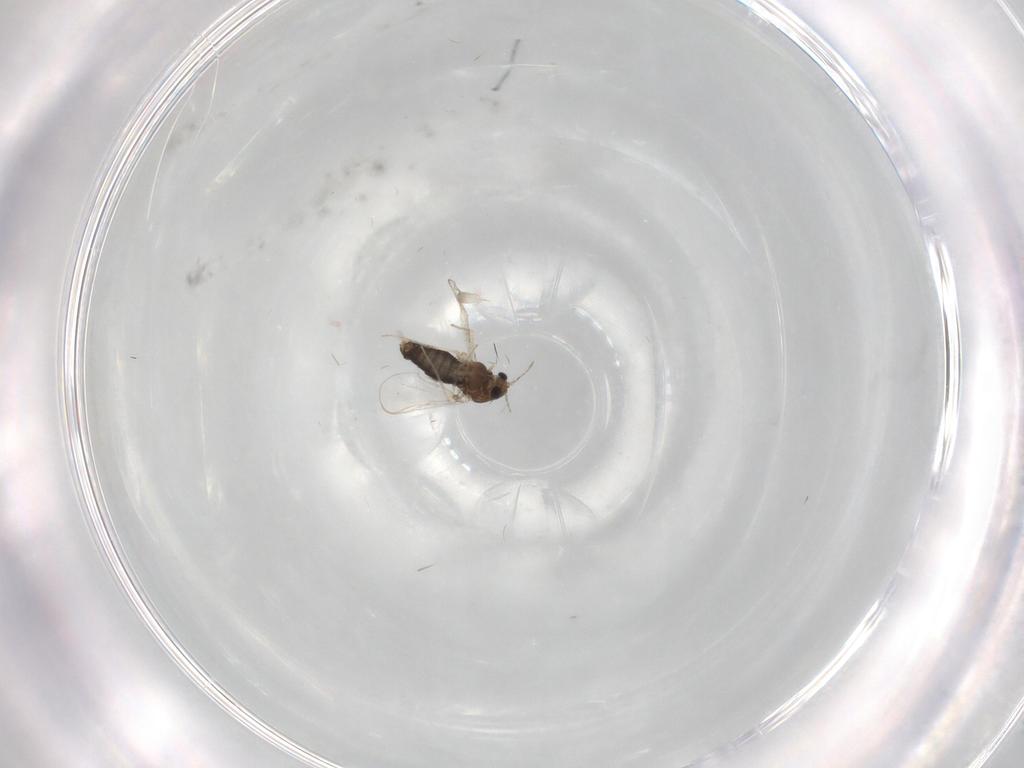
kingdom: Animalia
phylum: Arthropoda
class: Insecta
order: Diptera
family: Chironomidae
